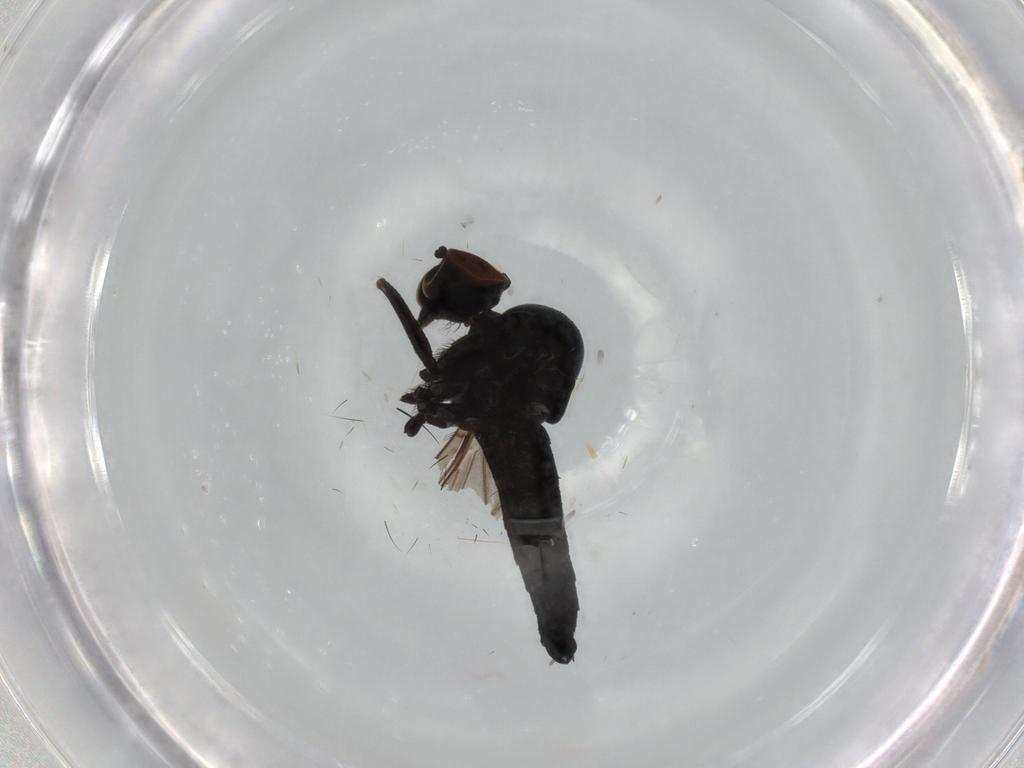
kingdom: Animalia
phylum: Arthropoda
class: Insecta
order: Diptera
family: Hybotidae
